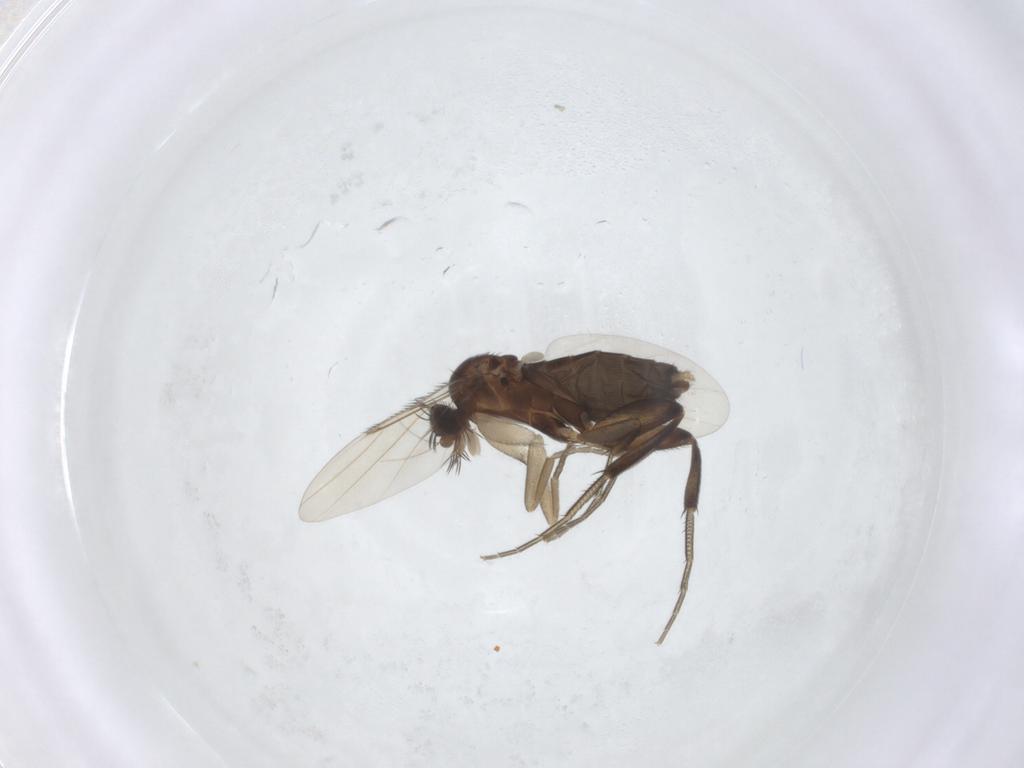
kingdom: Animalia
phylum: Arthropoda
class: Insecta
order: Diptera
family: Phoridae
